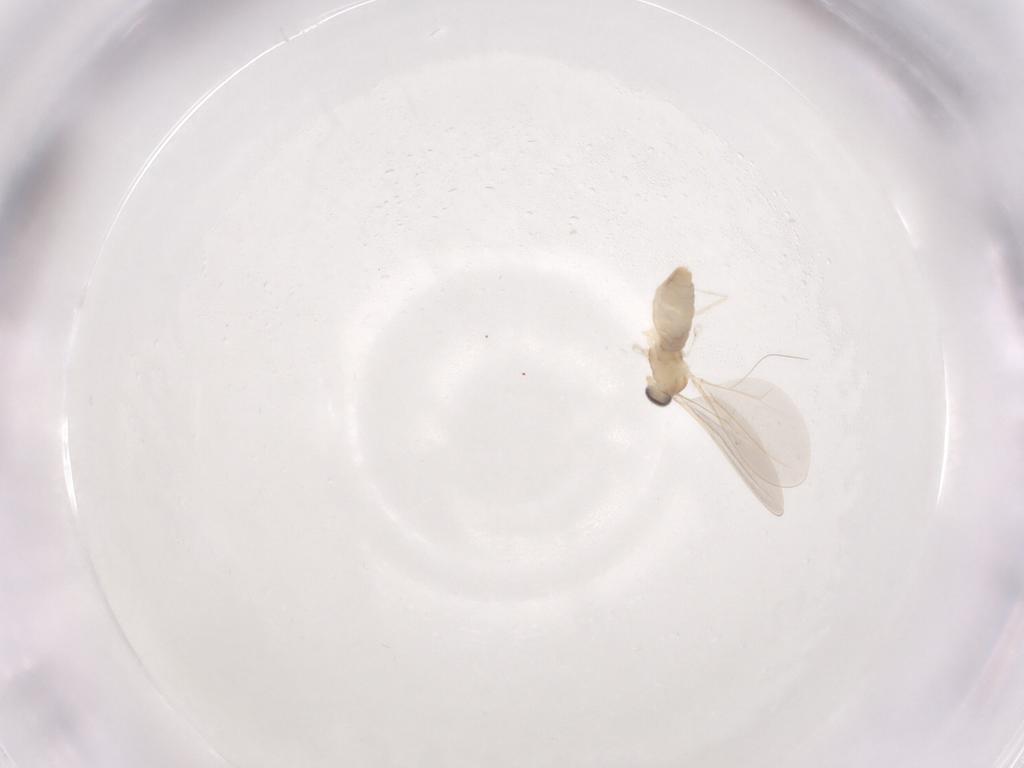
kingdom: Animalia
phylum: Arthropoda
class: Insecta
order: Diptera
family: Cecidomyiidae
